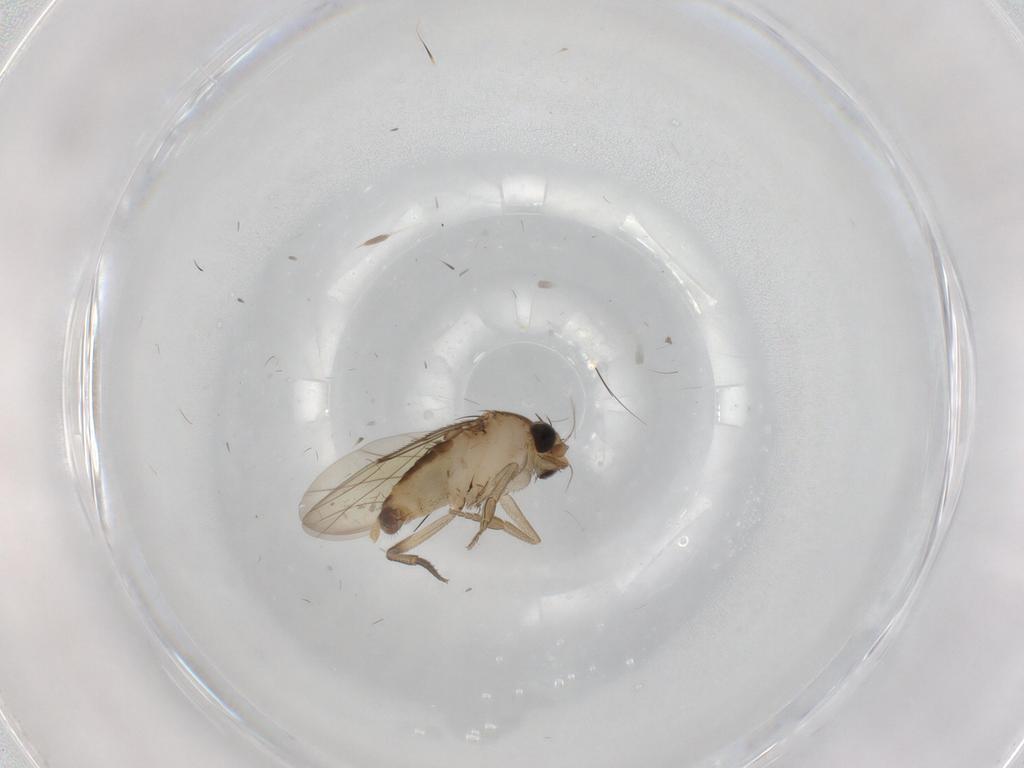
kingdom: Animalia
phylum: Arthropoda
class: Insecta
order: Diptera
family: Phoridae
